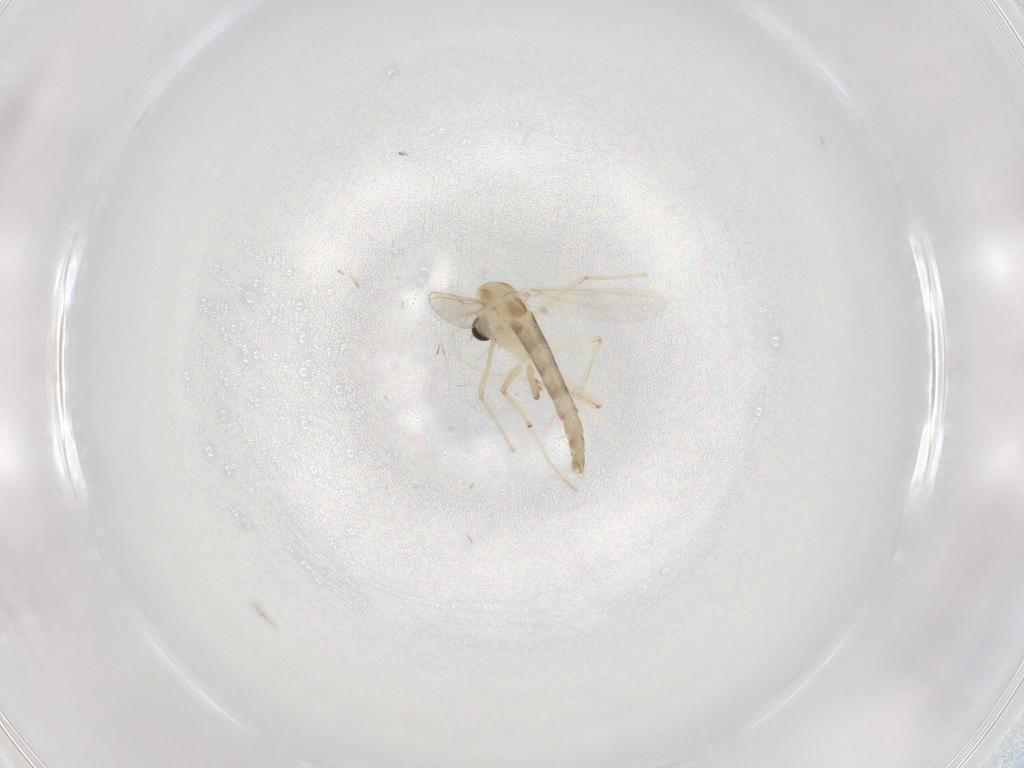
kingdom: Animalia
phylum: Arthropoda
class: Insecta
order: Diptera
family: Chironomidae
